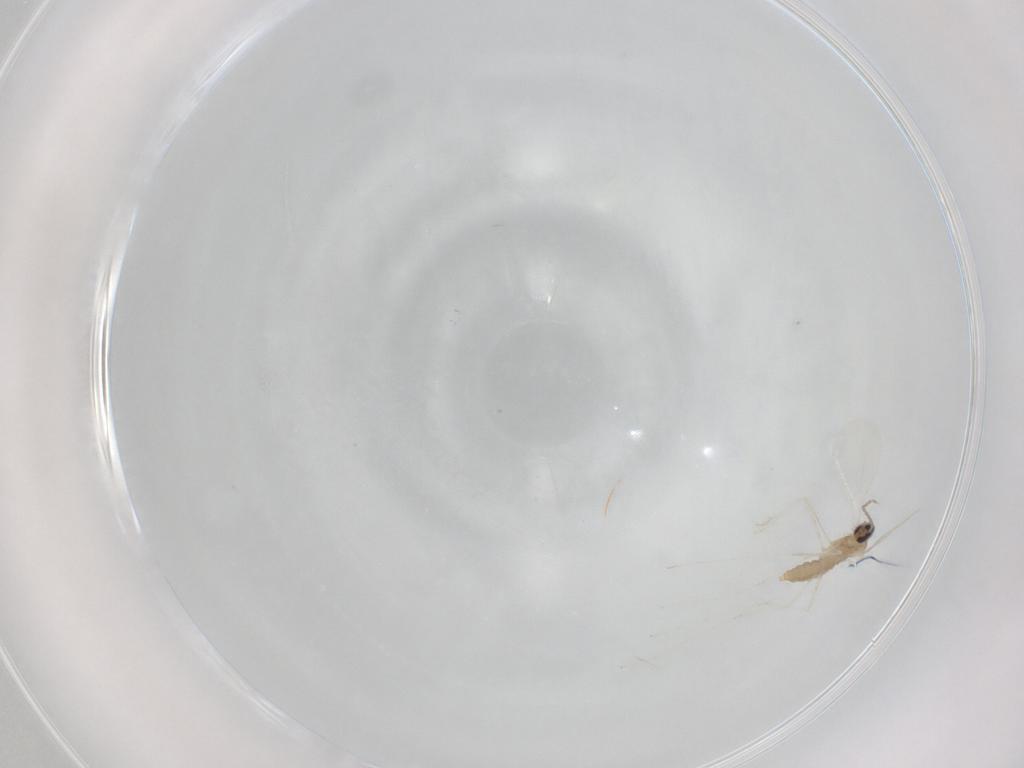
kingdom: Animalia
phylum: Arthropoda
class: Insecta
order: Diptera
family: Cecidomyiidae
